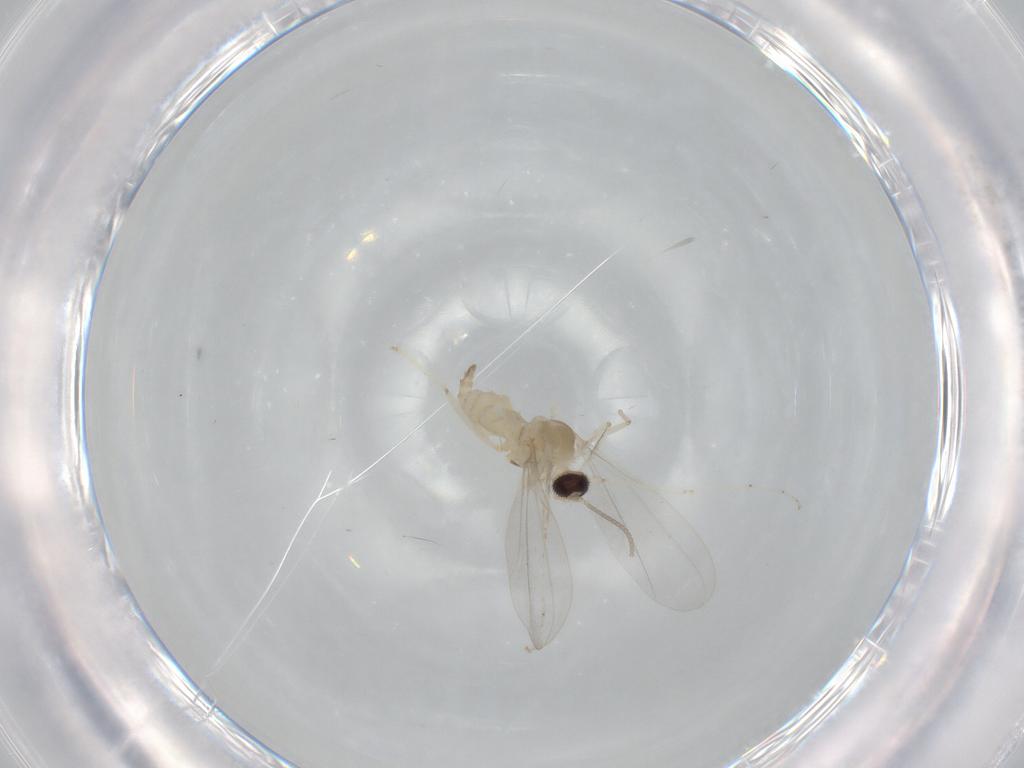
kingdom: Animalia
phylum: Arthropoda
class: Insecta
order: Diptera
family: Cecidomyiidae
